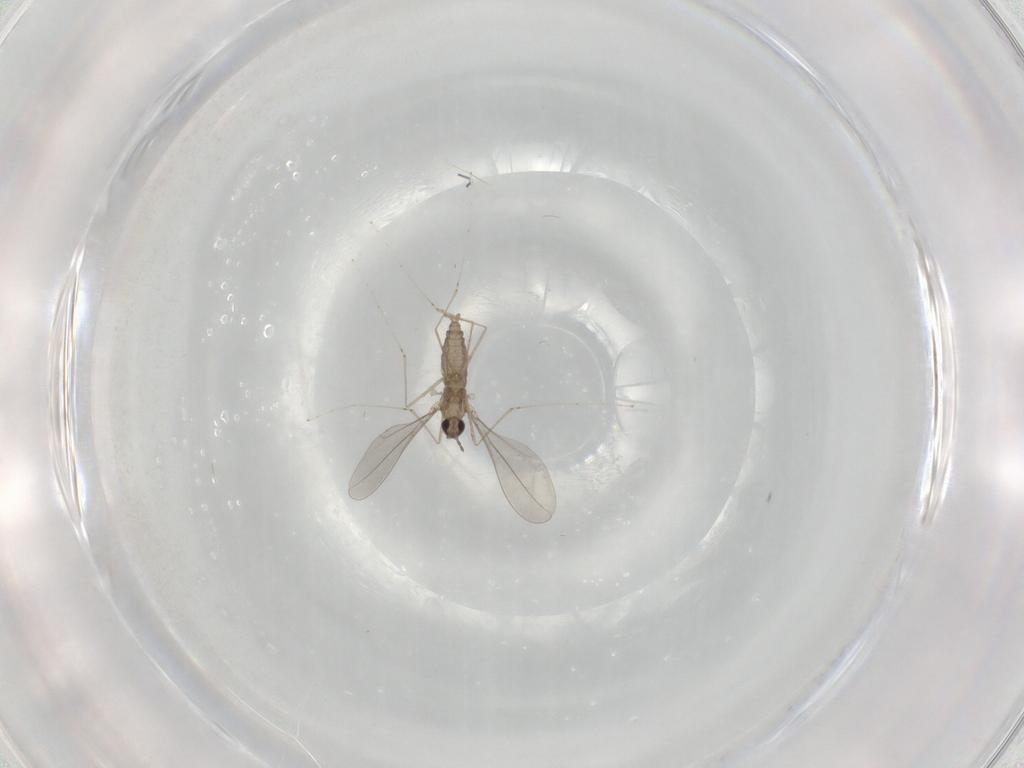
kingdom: Animalia
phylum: Arthropoda
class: Insecta
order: Diptera
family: Cecidomyiidae
